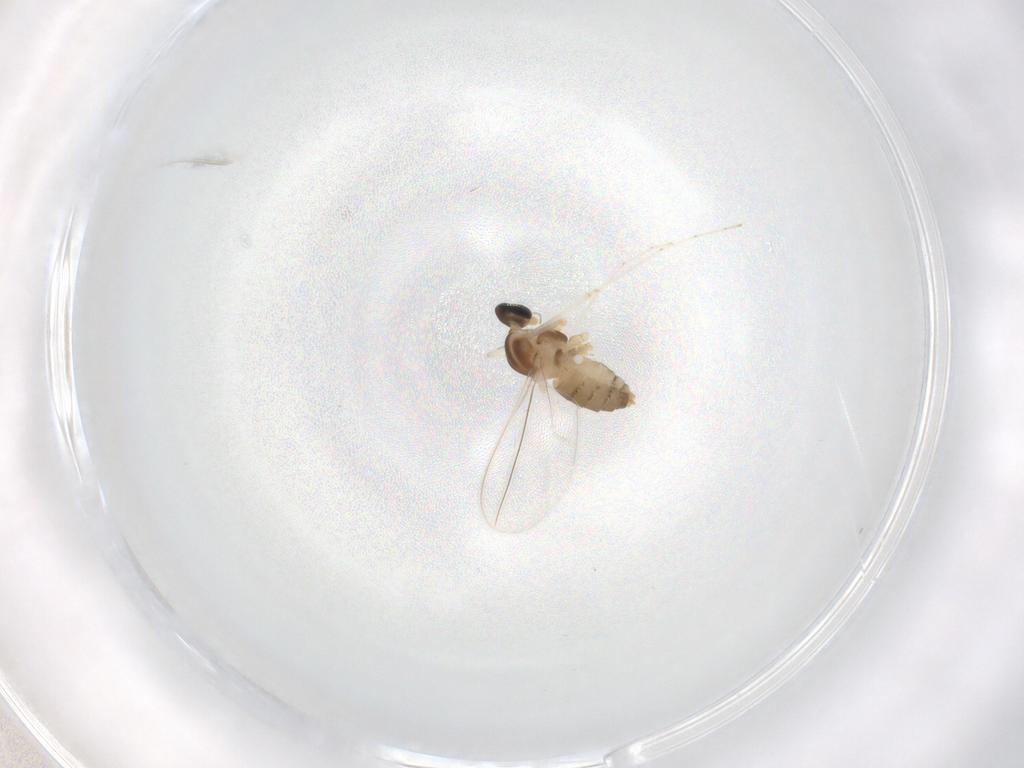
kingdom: Animalia
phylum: Arthropoda
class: Insecta
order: Diptera
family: Cecidomyiidae
